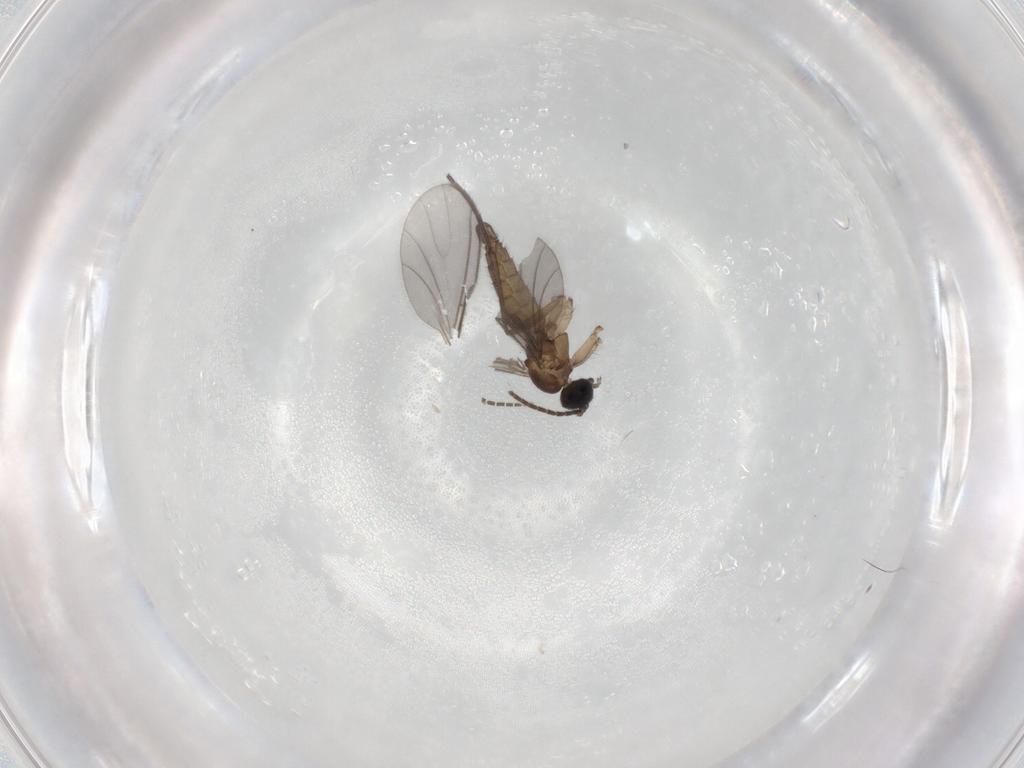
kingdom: Animalia
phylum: Arthropoda
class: Insecta
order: Diptera
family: Sciaridae
